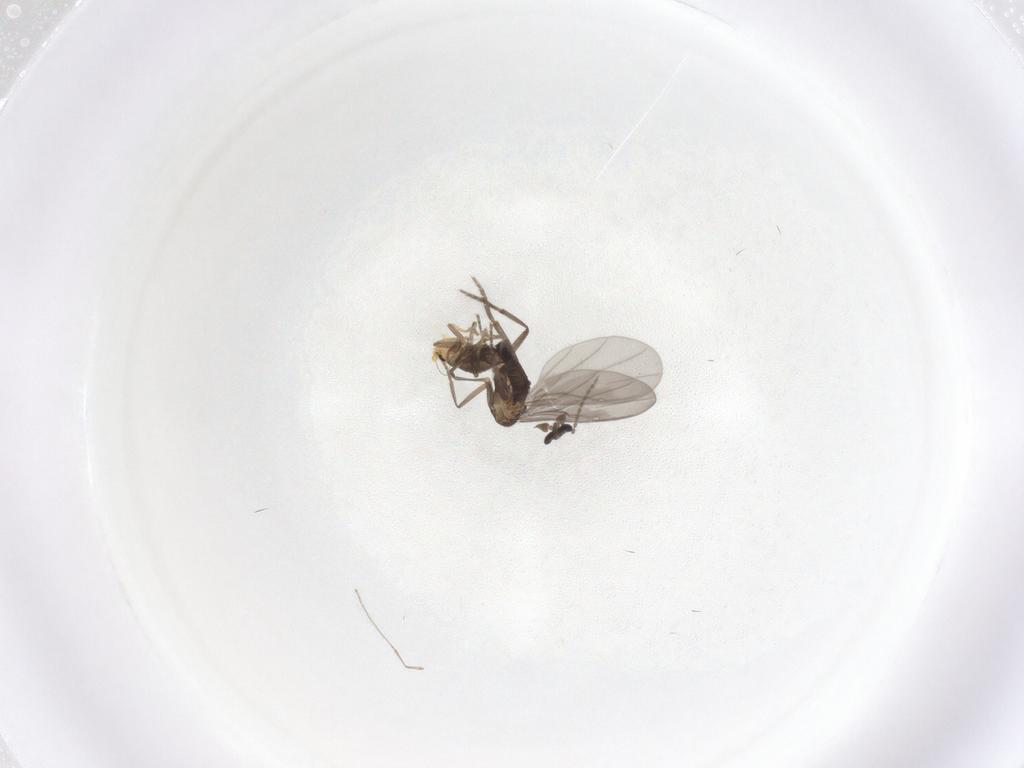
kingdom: Animalia
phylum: Arthropoda
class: Insecta
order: Diptera
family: Phoridae
